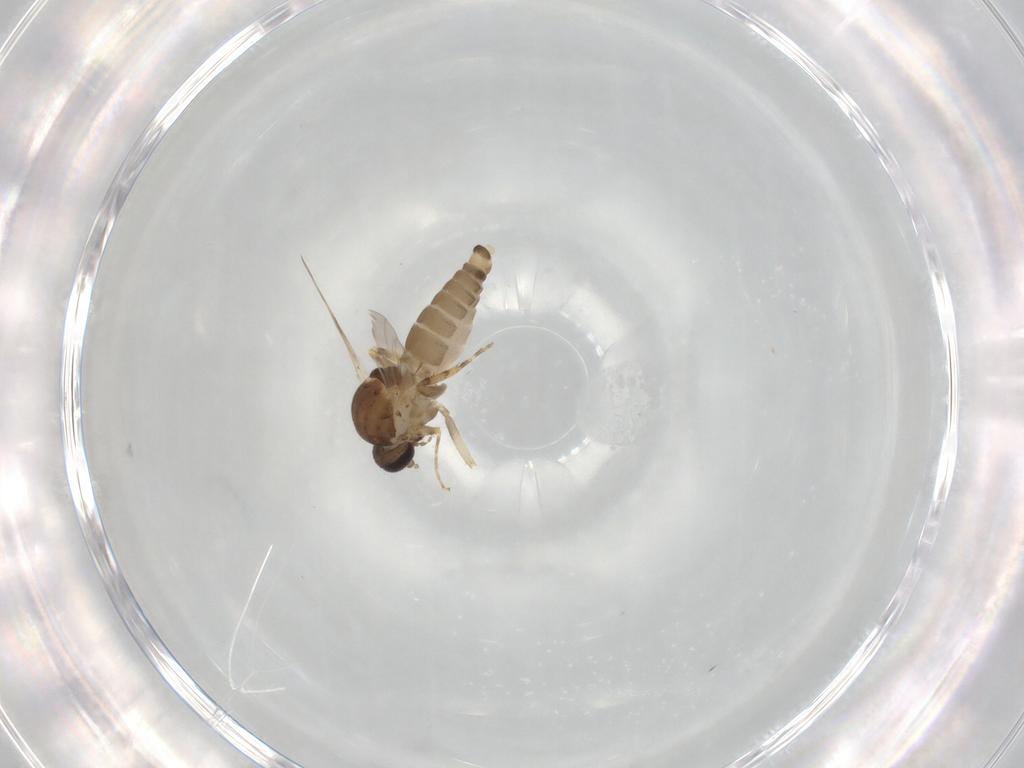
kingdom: Animalia
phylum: Arthropoda
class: Insecta
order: Diptera
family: Ceratopogonidae
